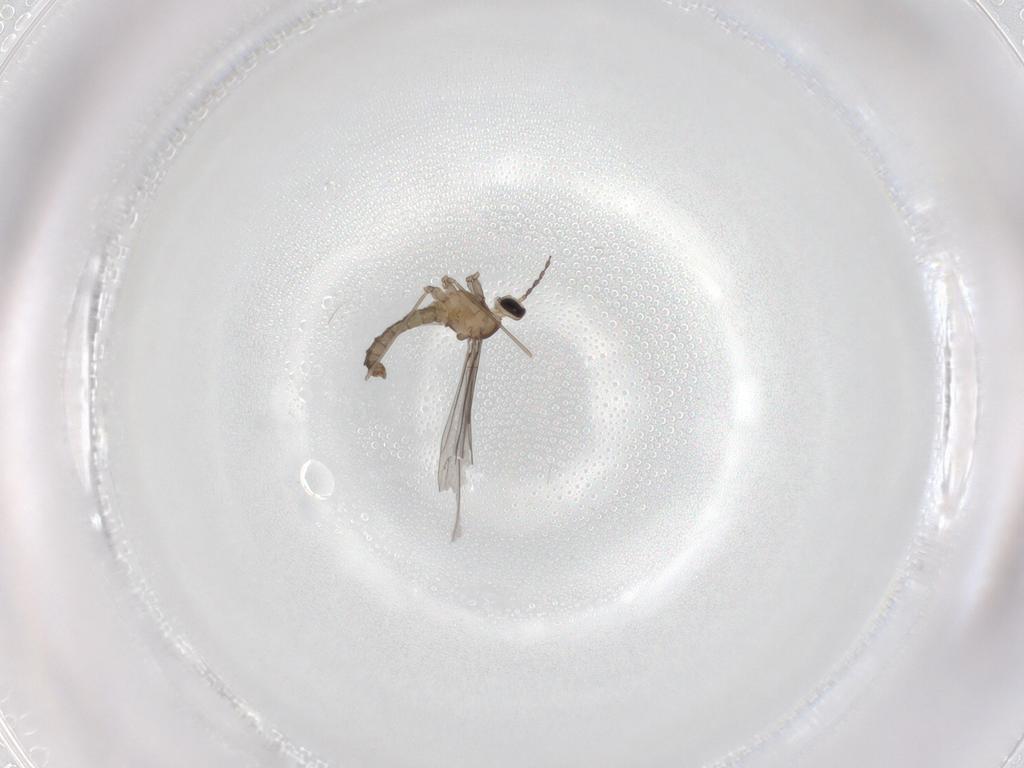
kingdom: Animalia
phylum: Arthropoda
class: Insecta
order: Diptera
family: Cecidomyiidae
